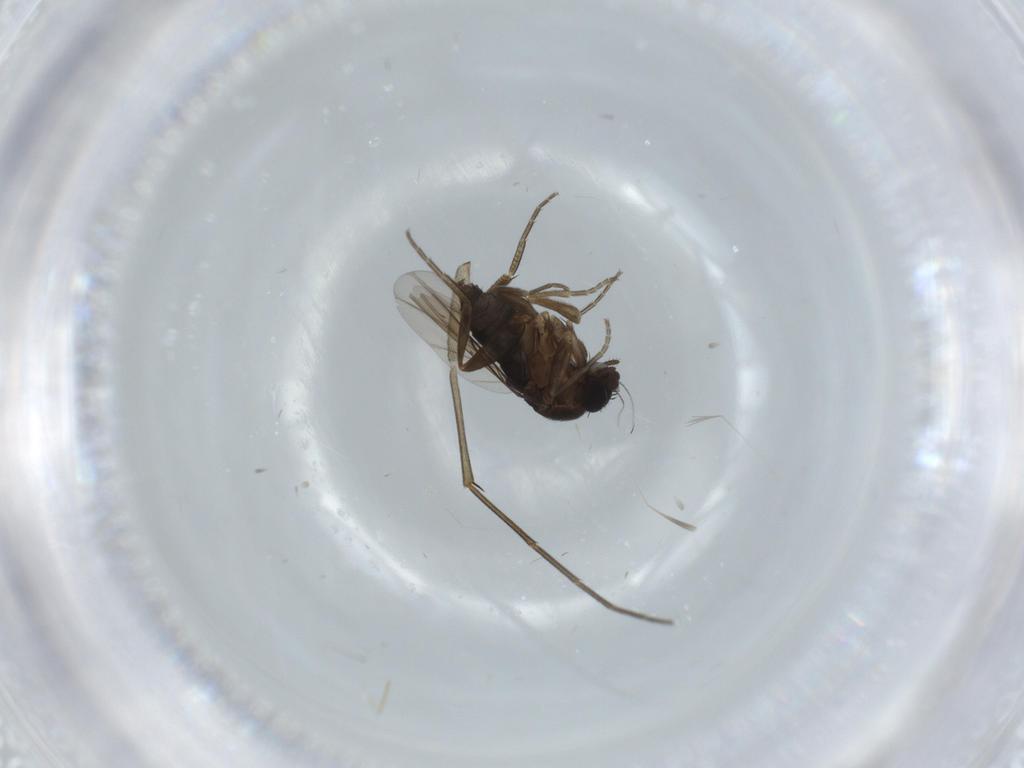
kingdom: Animalia
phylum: Arthropoda
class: Insecta
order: Diptera
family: Phoridae
